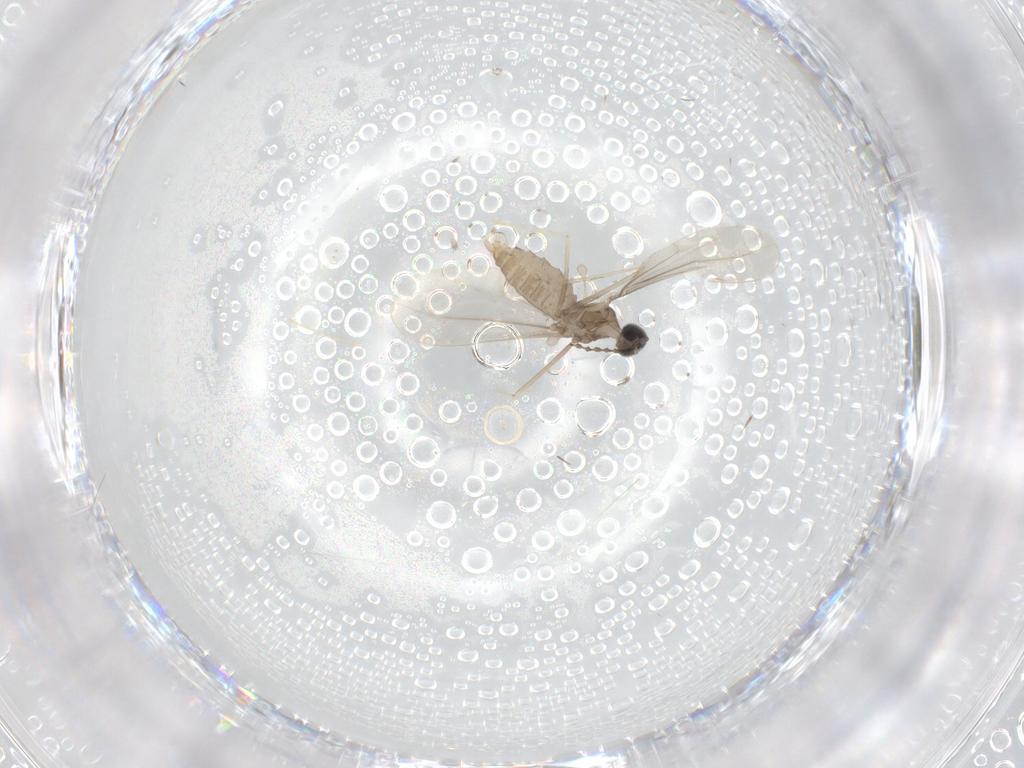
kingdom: Animalia
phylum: Arthropoda
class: Insecta
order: Diptera
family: Cecidomyiidae
